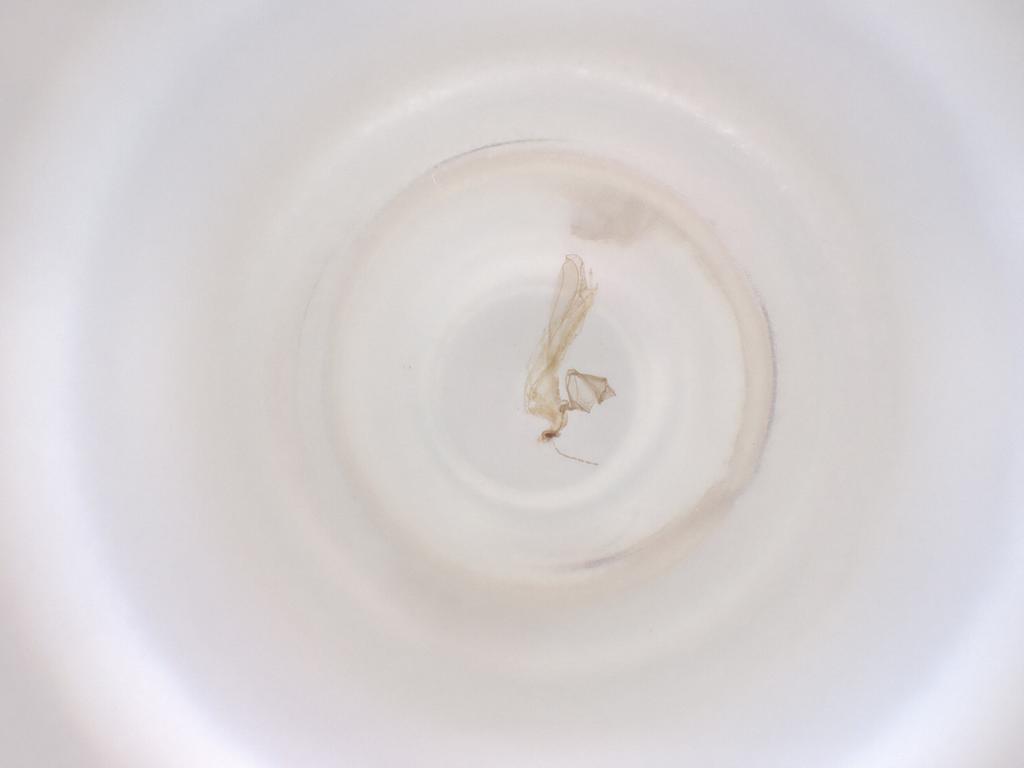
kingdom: Animalia
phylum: Arthropoda
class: Insecta
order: Diptera
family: Cecidomyiidae
